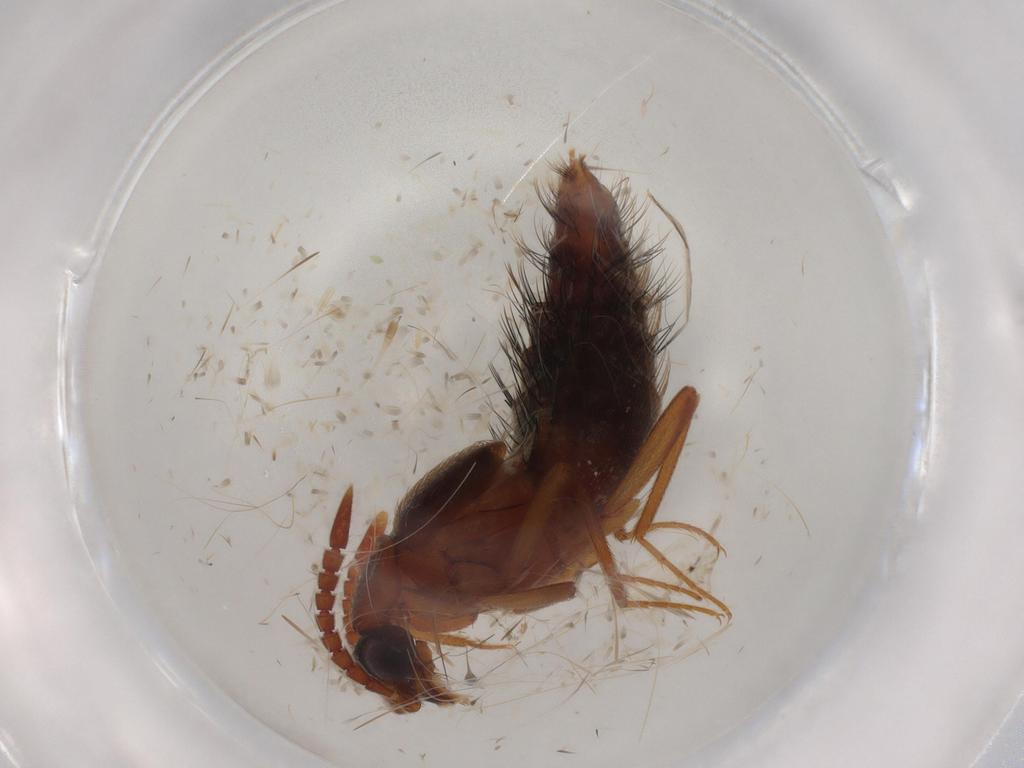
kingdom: Animalia
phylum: Arthropoda
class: Insecta
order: Coleoptera
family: Staphylinidae
